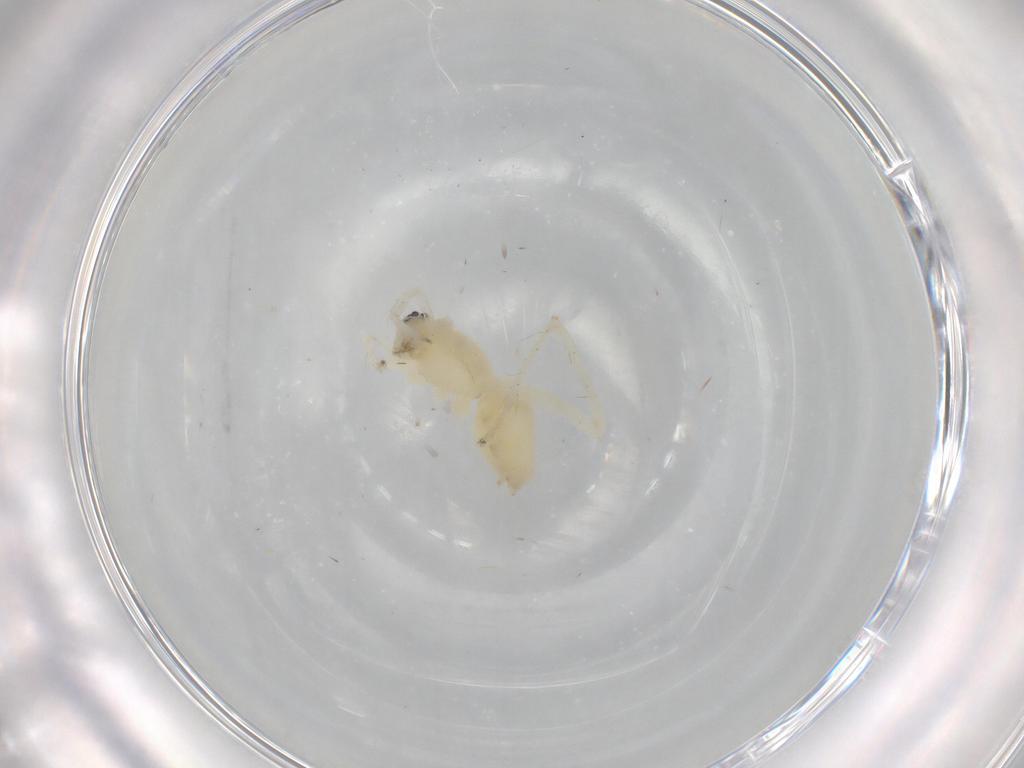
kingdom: Animalia
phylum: Arthropoda
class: Arachnida
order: Araneae
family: Anyphaenidae
